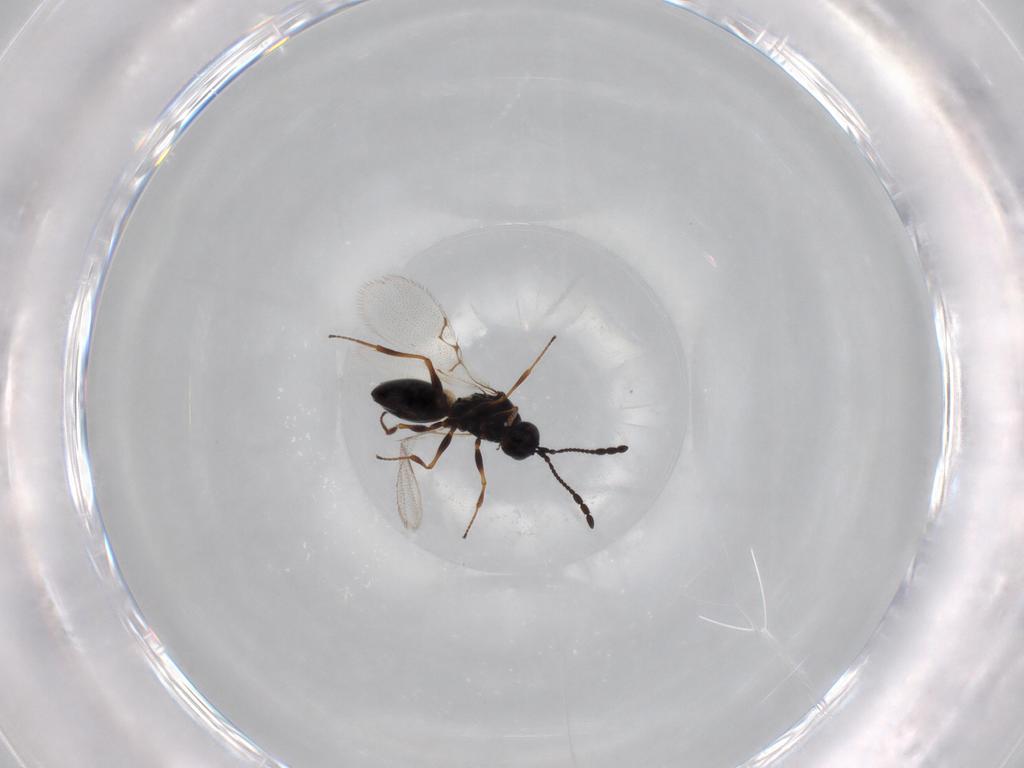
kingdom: Animalia
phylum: Arthropoda
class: Insecta
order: Hymenoptera
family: Figitidae
